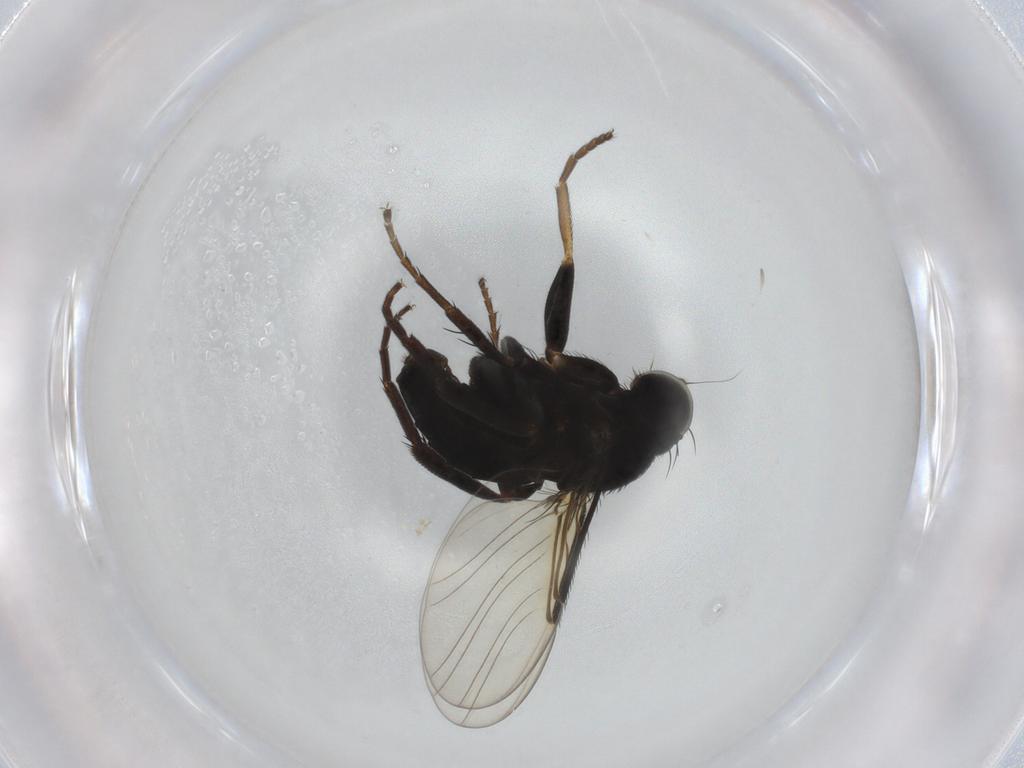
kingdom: Animalia
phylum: Arthropoda
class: Insecta
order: Diptera
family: Phoridae
